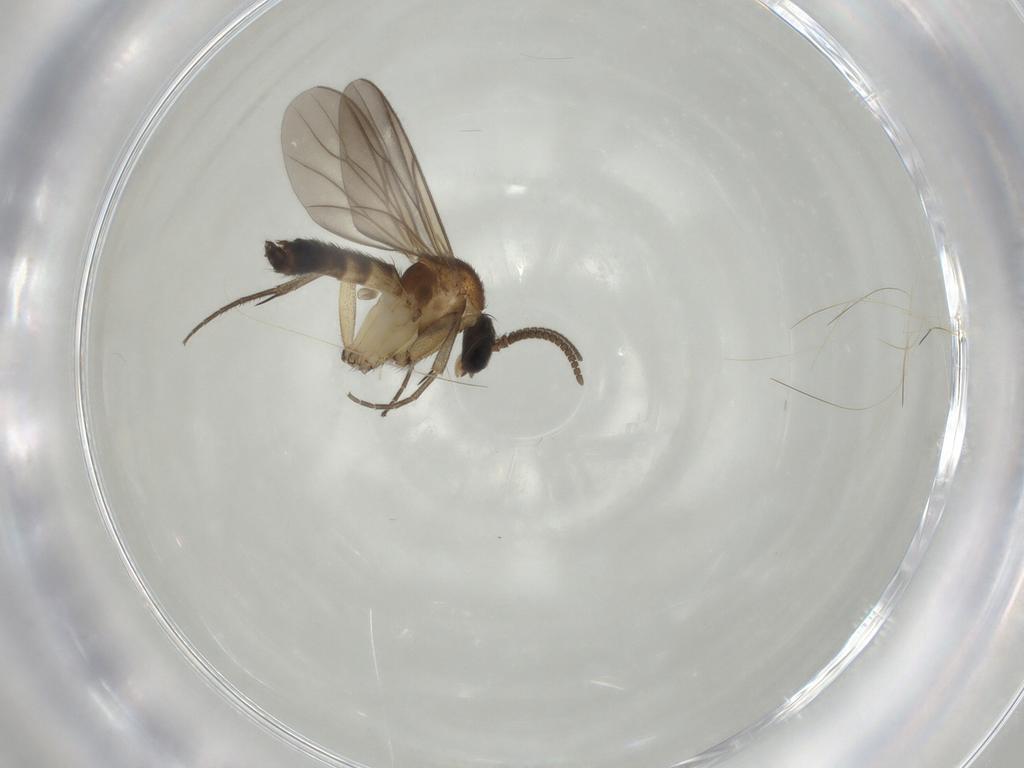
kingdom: Animalia
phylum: Arthropoda
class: Insecta
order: Diptera
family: Mycetophilidae
